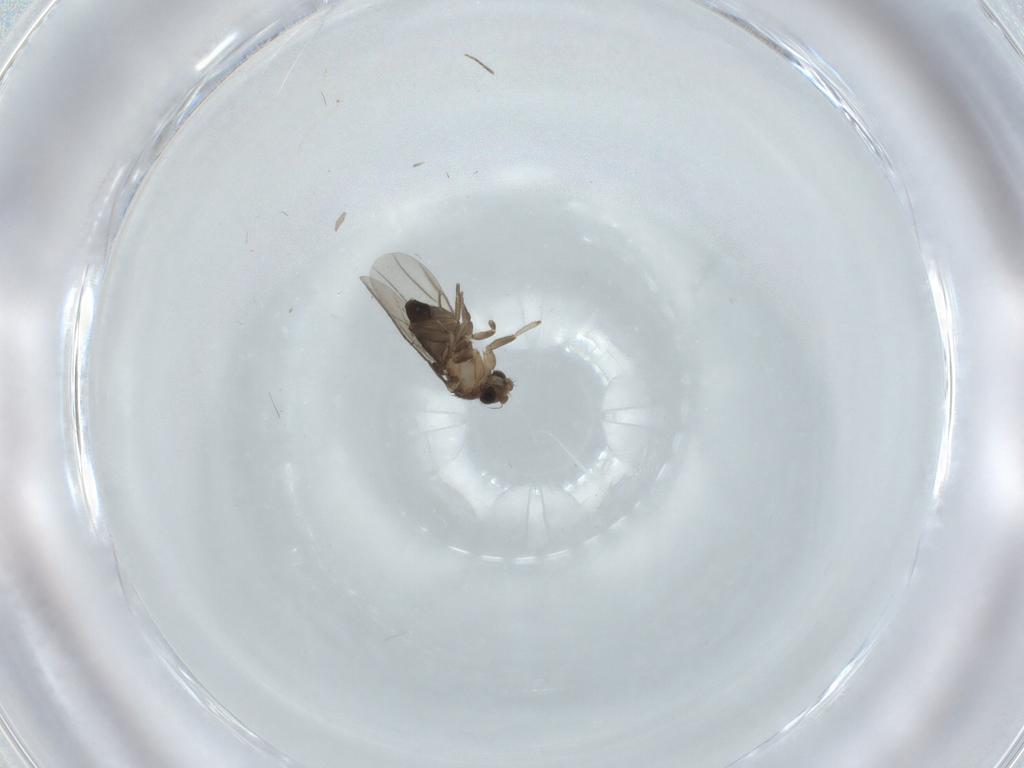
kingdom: Animalia
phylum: Arthropoda
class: Insecta
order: Diptera
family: Phoridae
